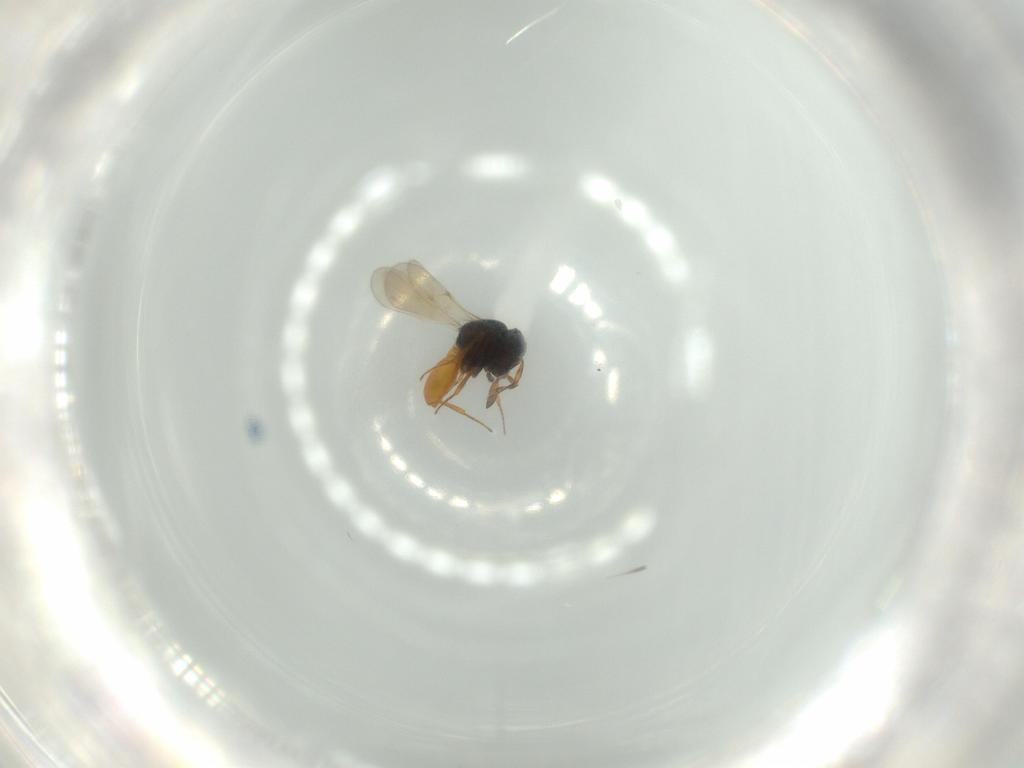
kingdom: Animalia
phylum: Arthropoda
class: Insecta
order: Hymenoptera
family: Scelionidae
